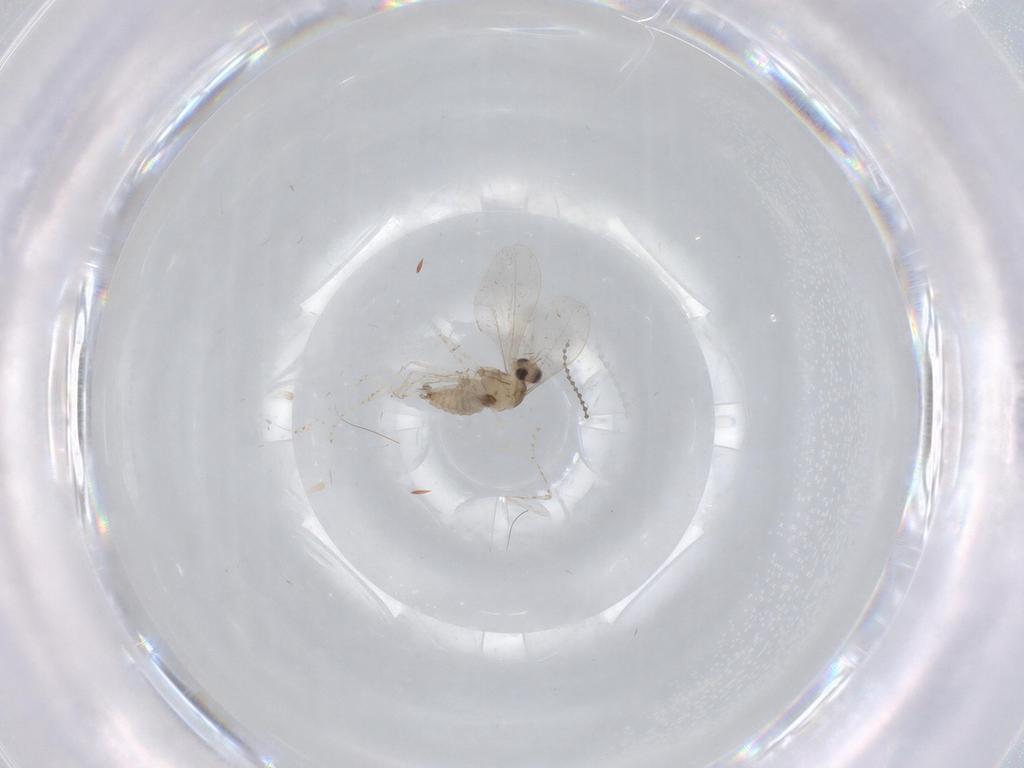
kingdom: Animalia
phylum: Arthropoda
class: Insecta
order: Diptera
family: Cecidomyiidae
